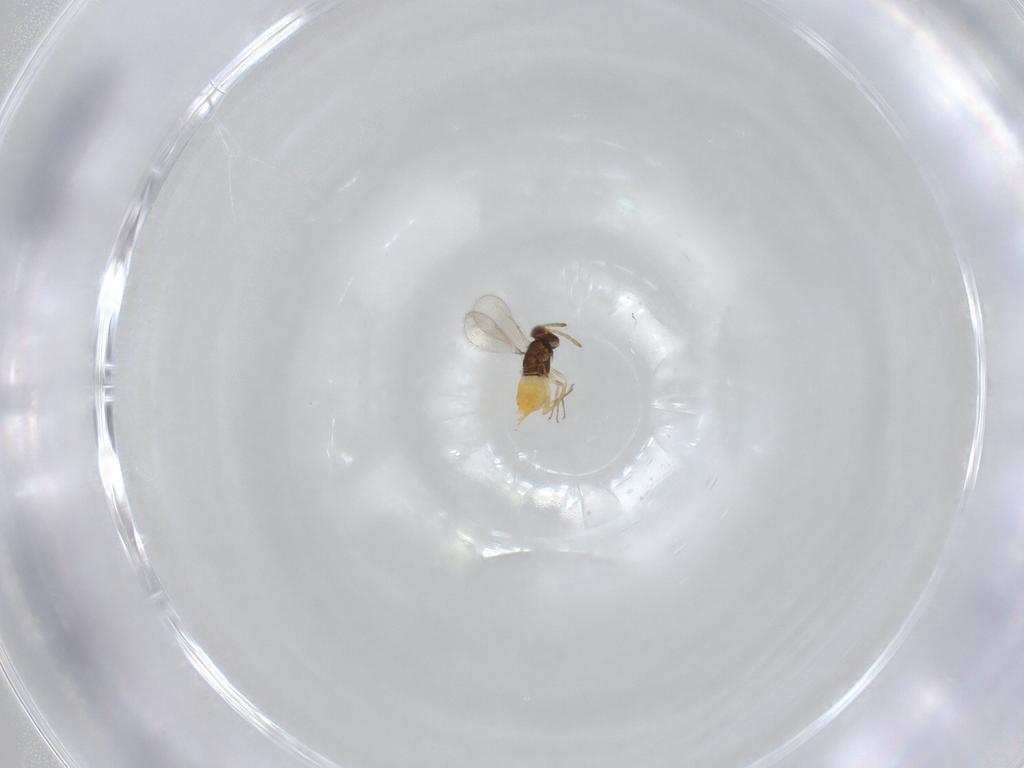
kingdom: Animalia
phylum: Arthropoda
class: Insecta
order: Hymenoptera
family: Aphelinidae
